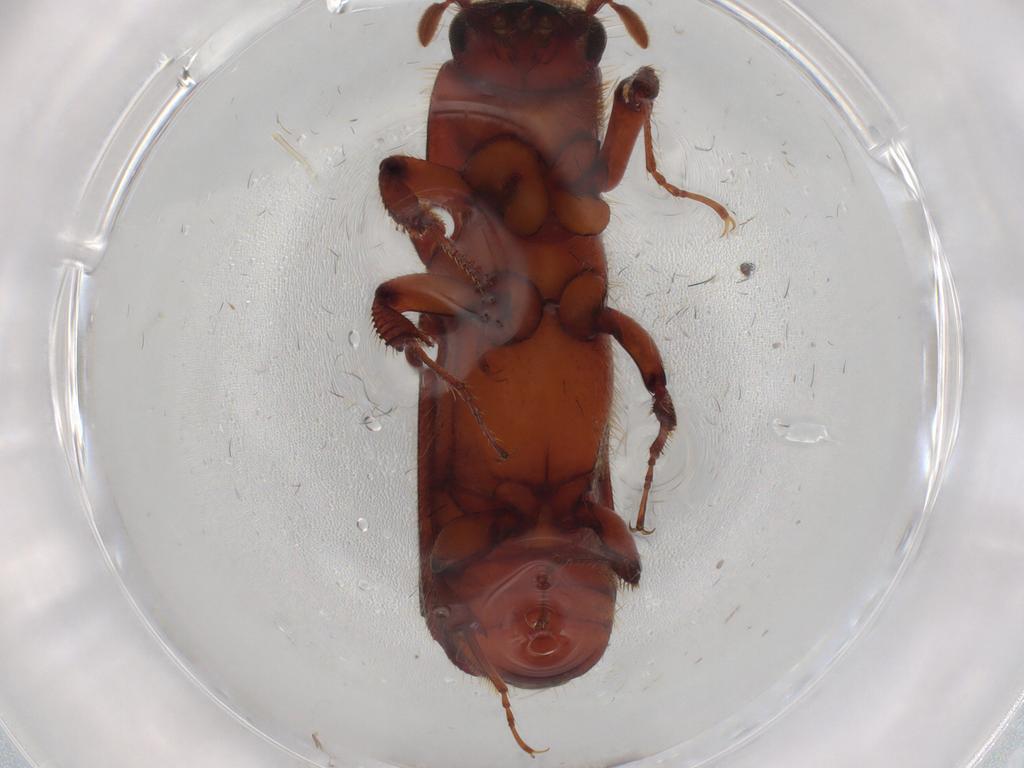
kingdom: Animalia
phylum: Arthropoda
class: Insecta
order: Coleoptera
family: Curculionidae
